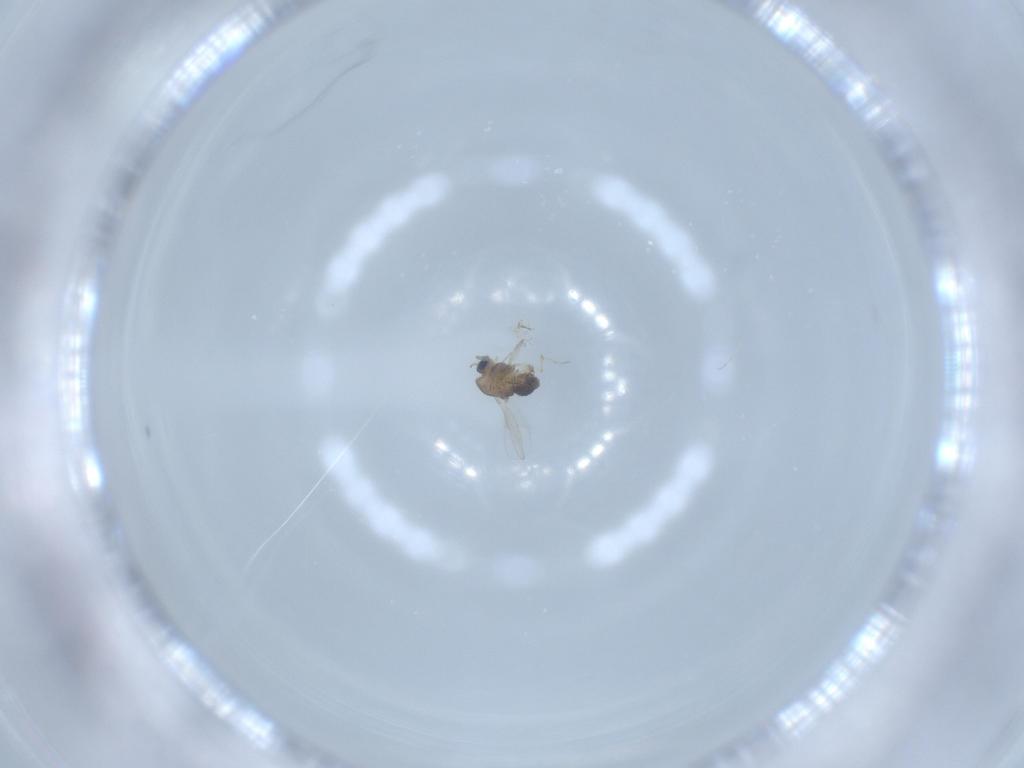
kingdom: Animalia
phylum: Arthropoda
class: Insecta
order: Diptera
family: Chironomidae
